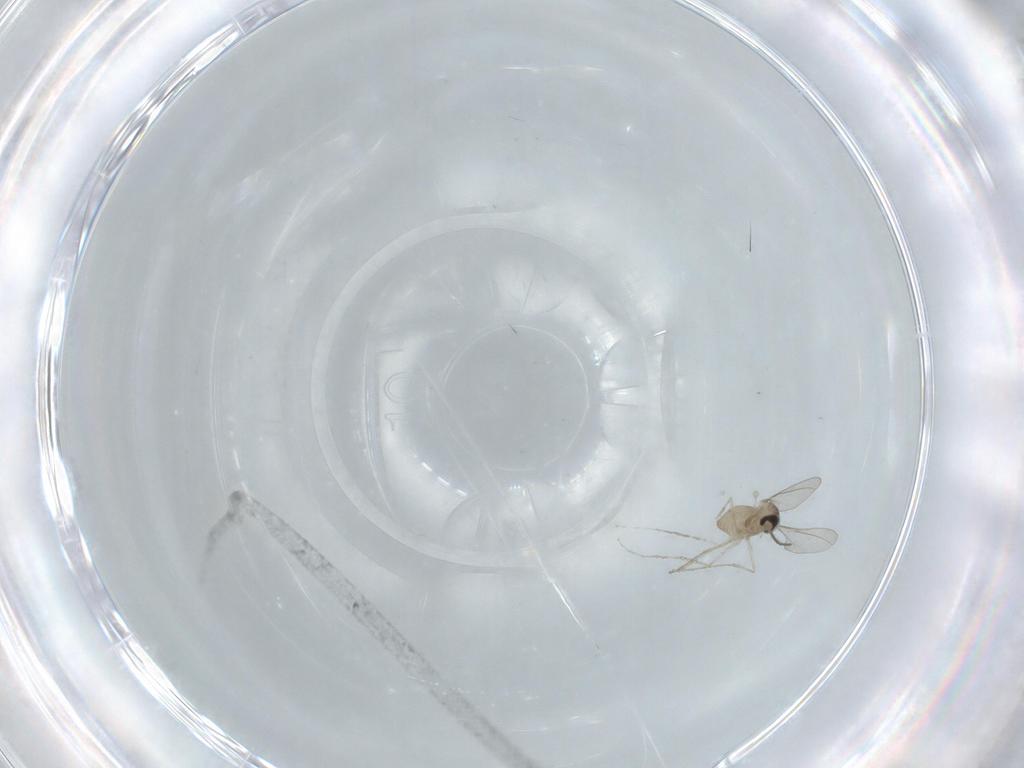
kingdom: Animalia
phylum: Arthropoda
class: Insecta
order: Diptera
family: Cecidomyiidae
